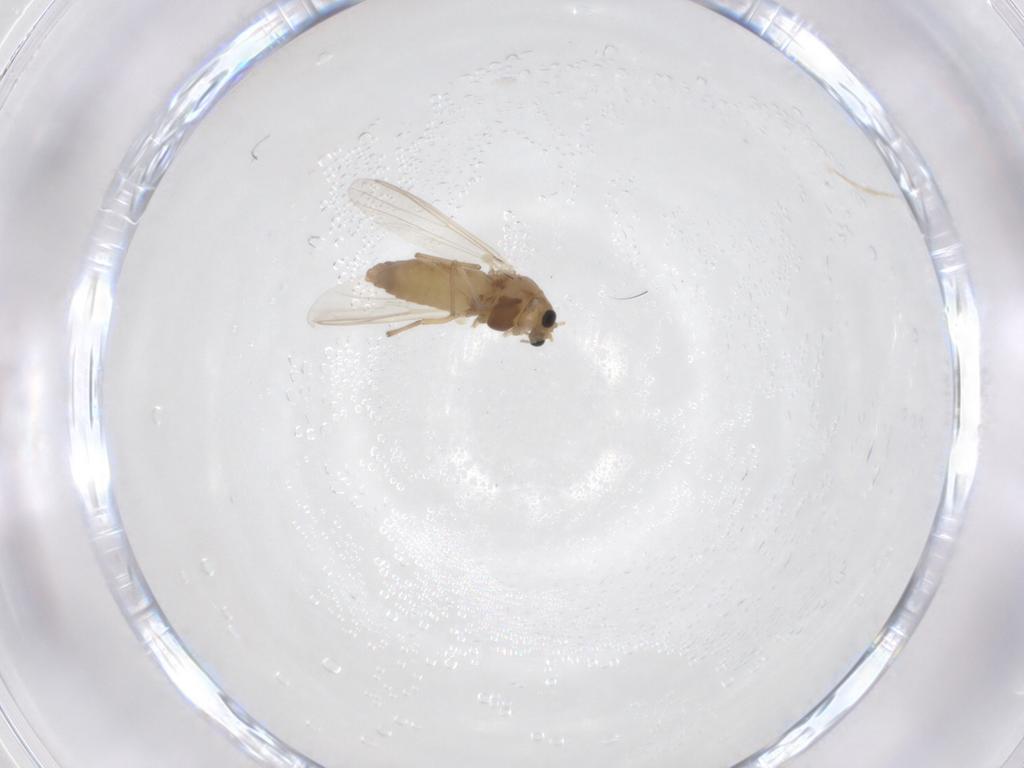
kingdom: Animalia
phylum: Arthropoda
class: Insecta
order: Diptera
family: Chironomidae
